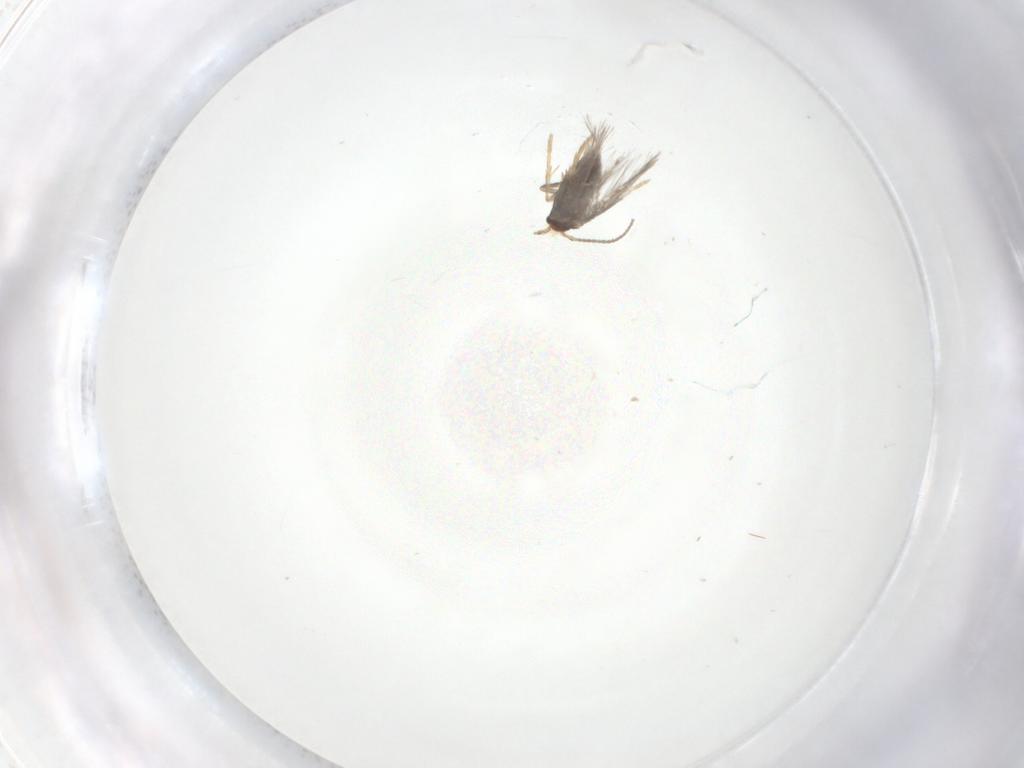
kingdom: Animalia
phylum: Arthropoda
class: Insecta
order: Lepidoptera
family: Nepticulidae
